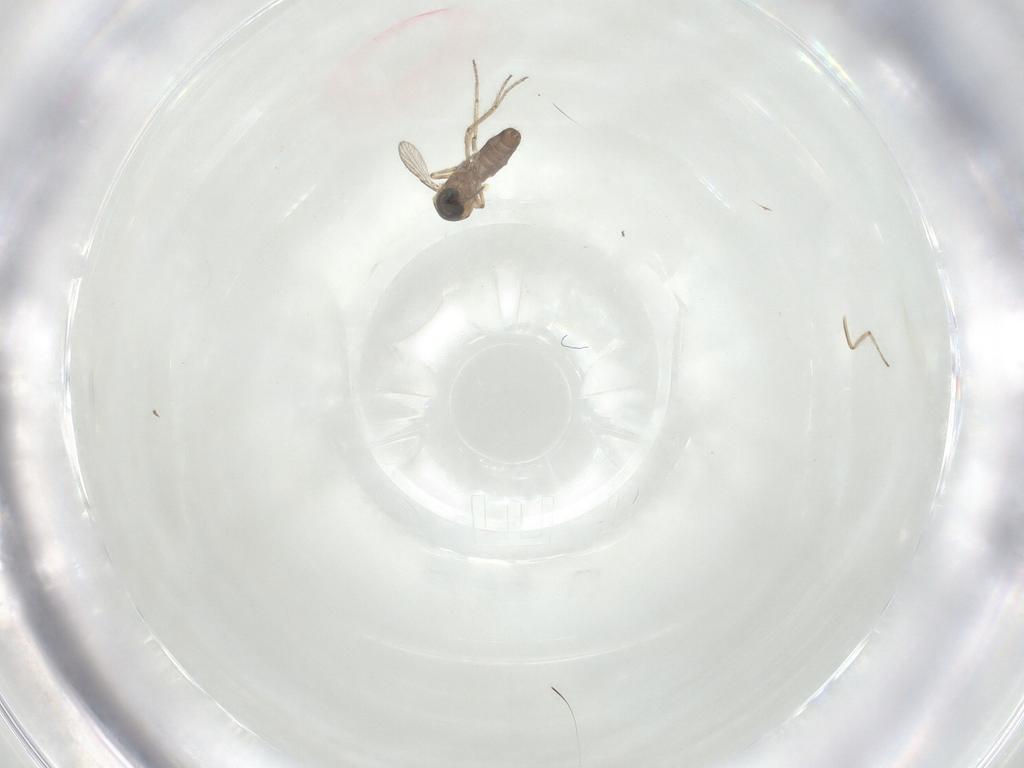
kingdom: Animalia
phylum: Arthropoda
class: Insecta
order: Diptera
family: Ceratopogonidae
